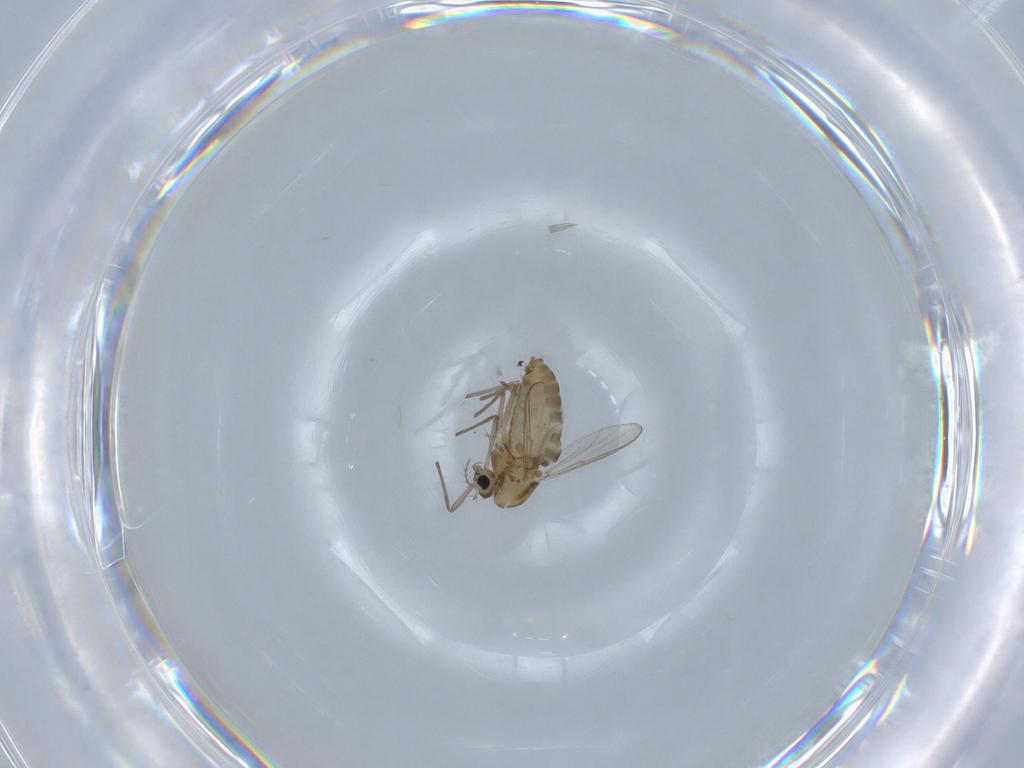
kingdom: Animalia
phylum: Arthropoda
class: Insecta
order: Diptera
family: Chironomidae
